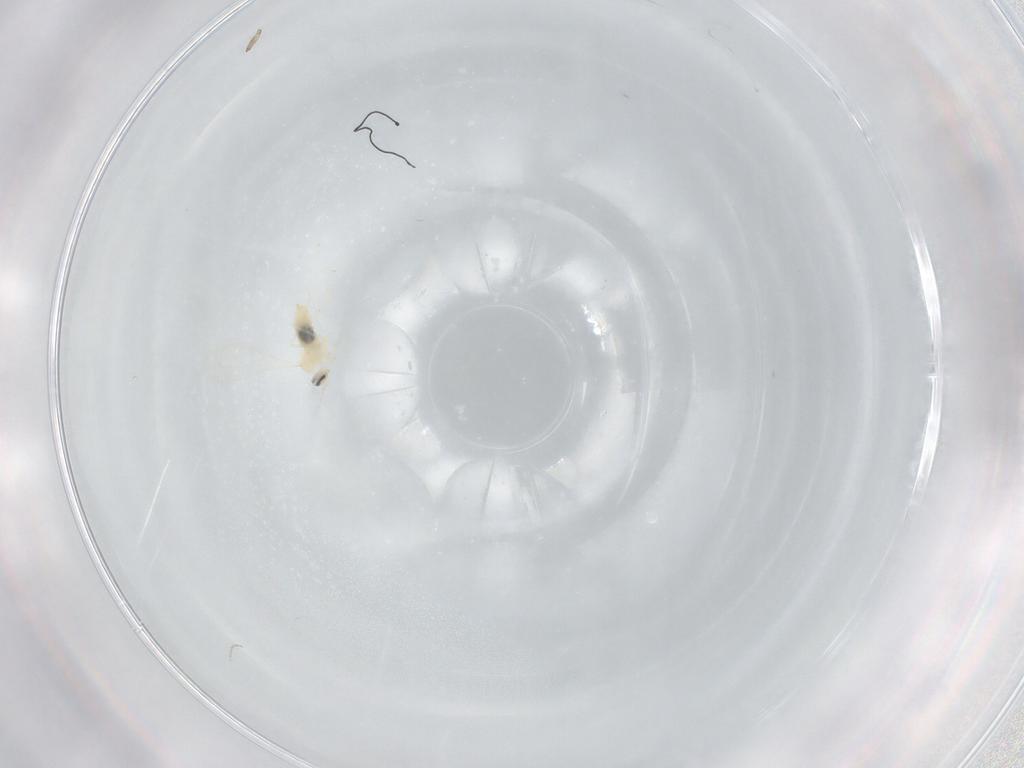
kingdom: Animalia
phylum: Arthropoda
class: Insecta
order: Diptera
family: Cecidomyiidae
